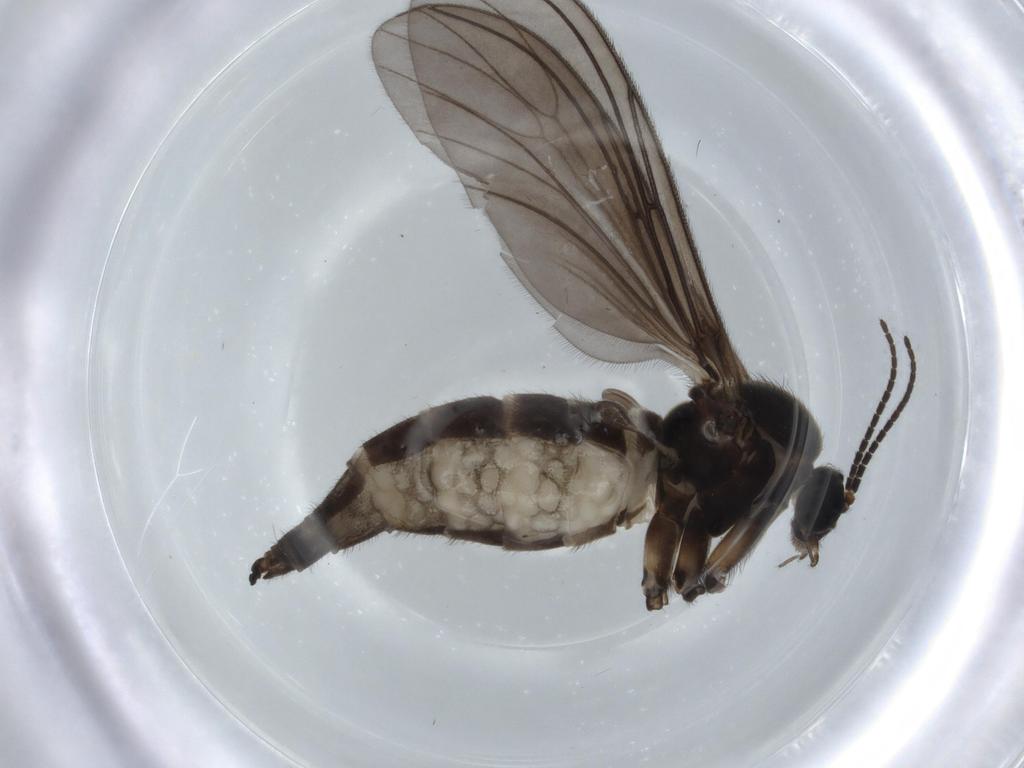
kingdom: Animalia
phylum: Arthropoda
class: Insecta
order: Diptera
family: Sciaridae
